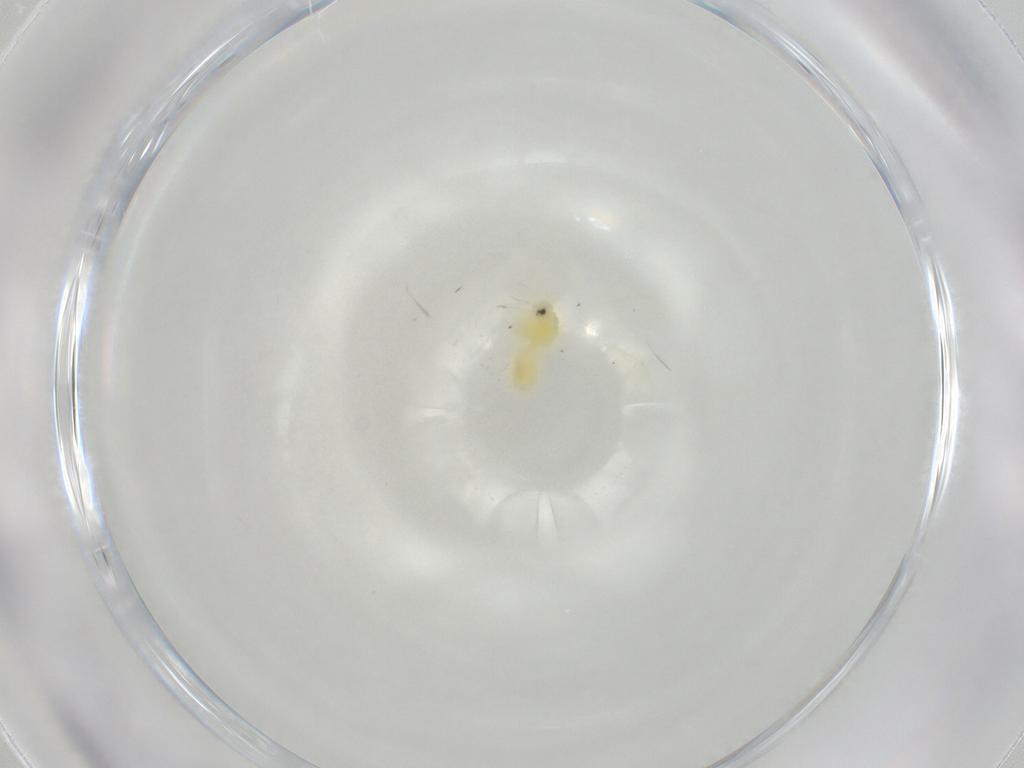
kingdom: Animalia
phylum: Arthropoda
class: Insecta
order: Hemiptera
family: Aleyrodidae
